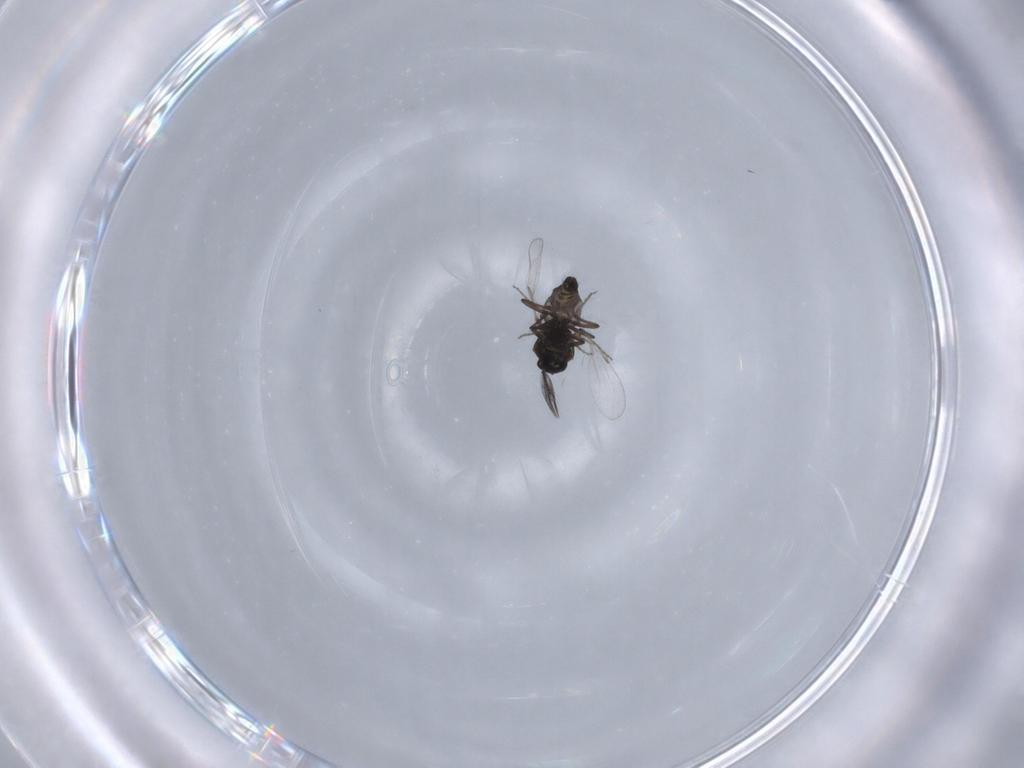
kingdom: Animalia
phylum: Arthropoda
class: Insecta
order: Diptera
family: Ceratopogonidae
